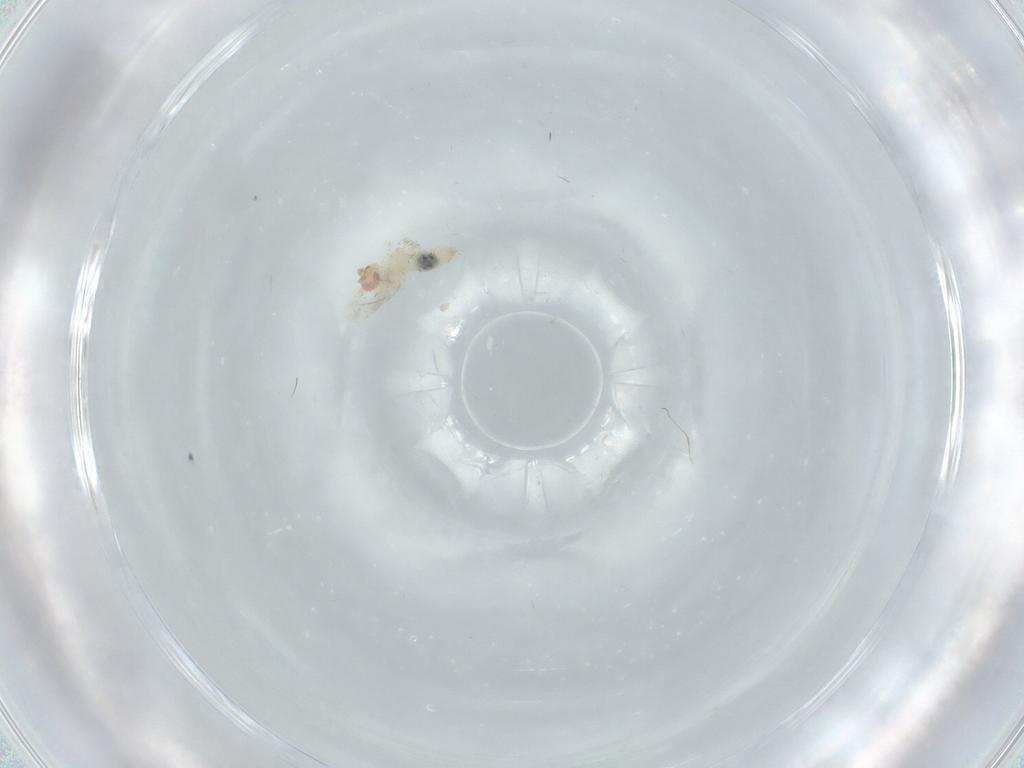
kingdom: Animalia
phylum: Arthropoda
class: Insecta
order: Diptera
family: Cecidomyiidae
